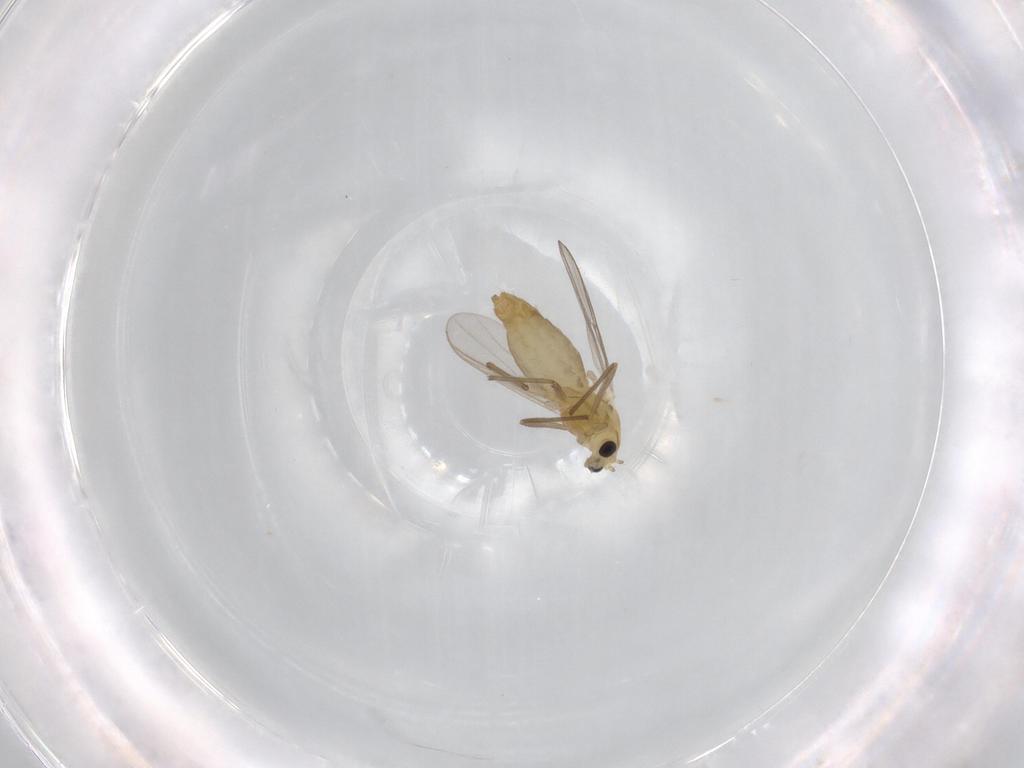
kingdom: Animalia
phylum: Arthropoda
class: Insecta
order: Diptera
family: Chironomidae
